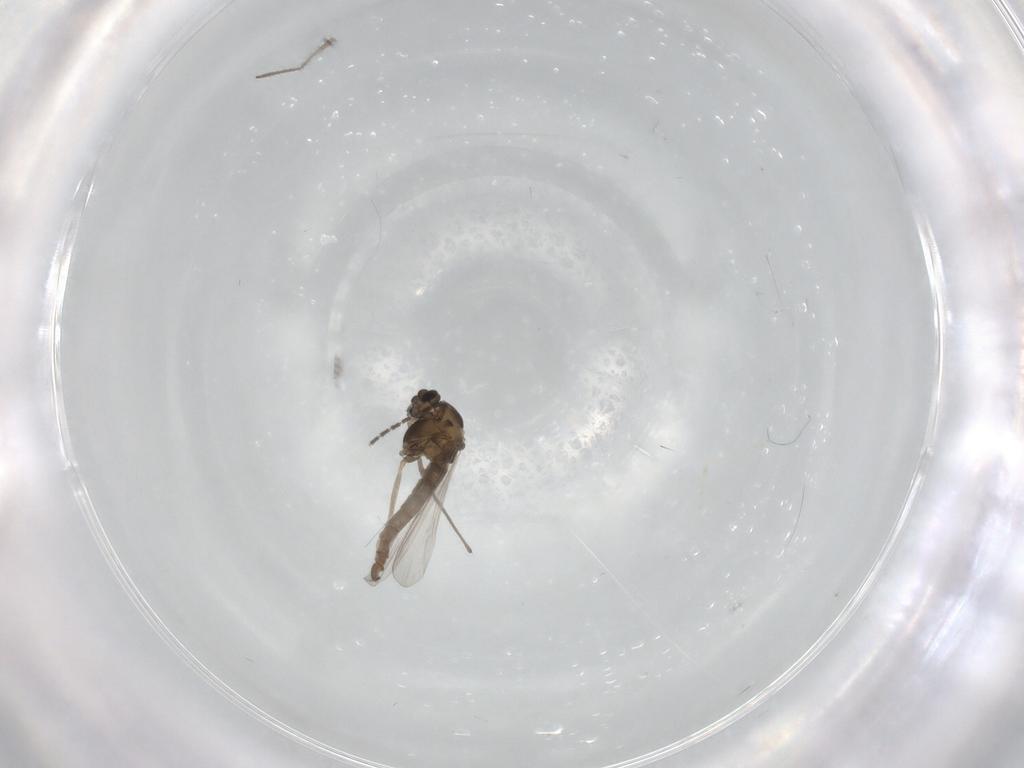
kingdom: Animalia
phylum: Arthropoda
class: Insecta
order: Diptera
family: Chironomidae
